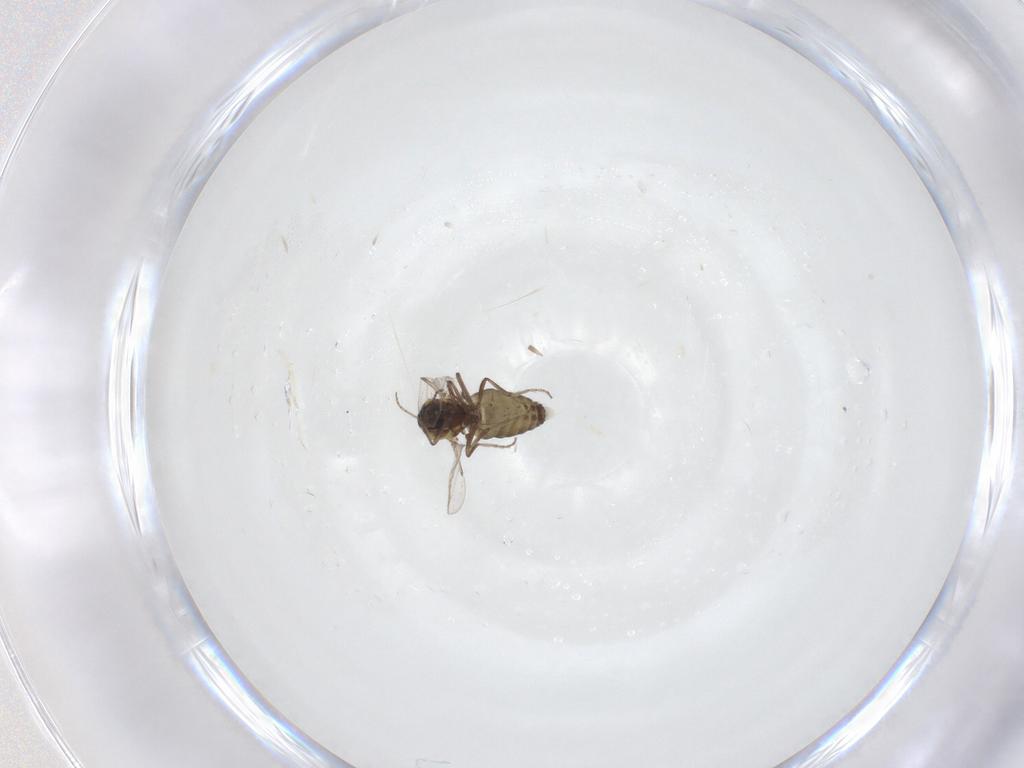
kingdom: Animalia
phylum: Arthropoda
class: Insecta
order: Diptera
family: Ceratopogonidae
